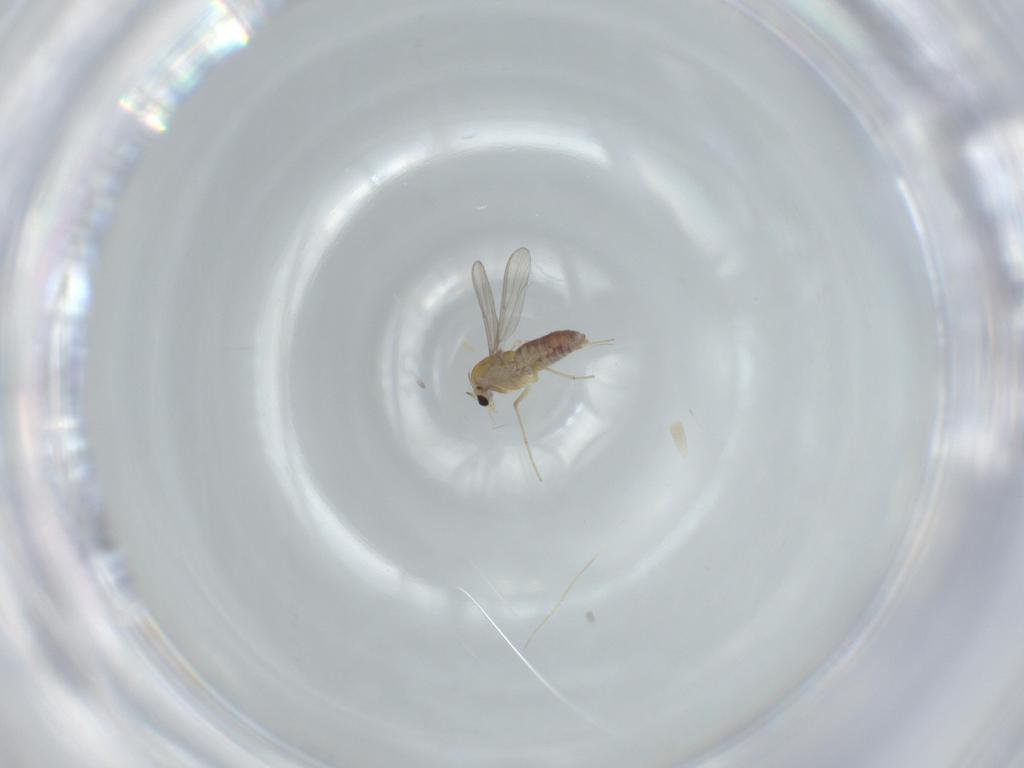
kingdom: Animalia
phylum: Arthropoda
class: Insecta
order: Diptera
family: Chironomidae
